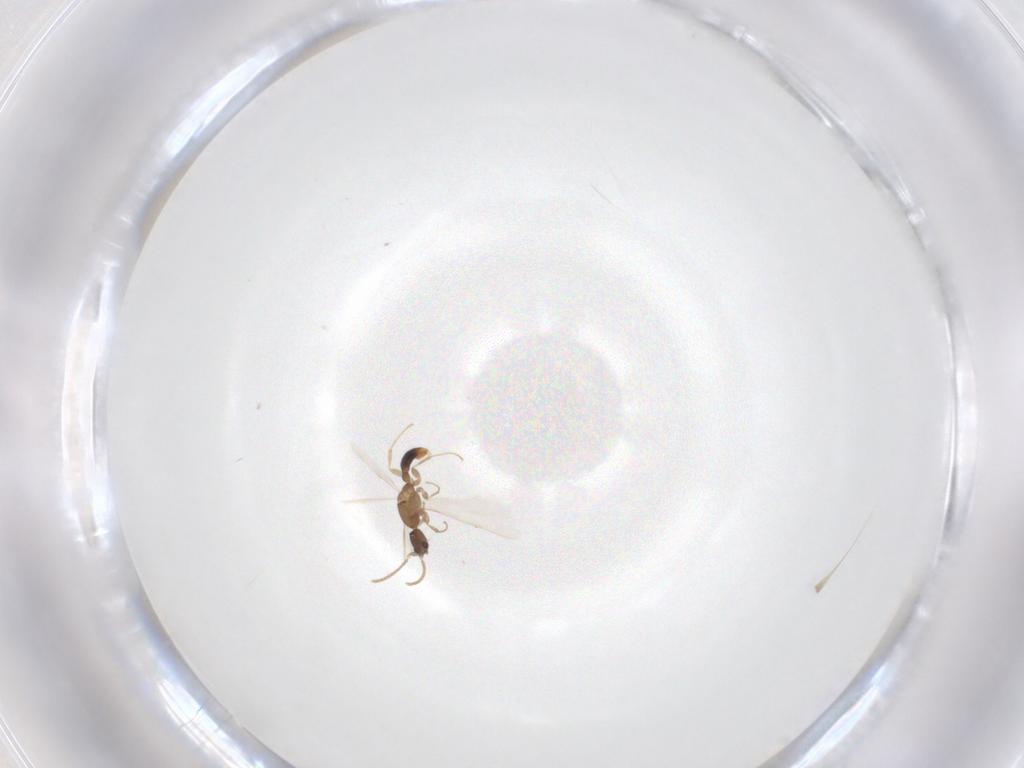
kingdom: Animalia
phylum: Arthropoda
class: Insecta
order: Hymenoptera
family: Formicidae
